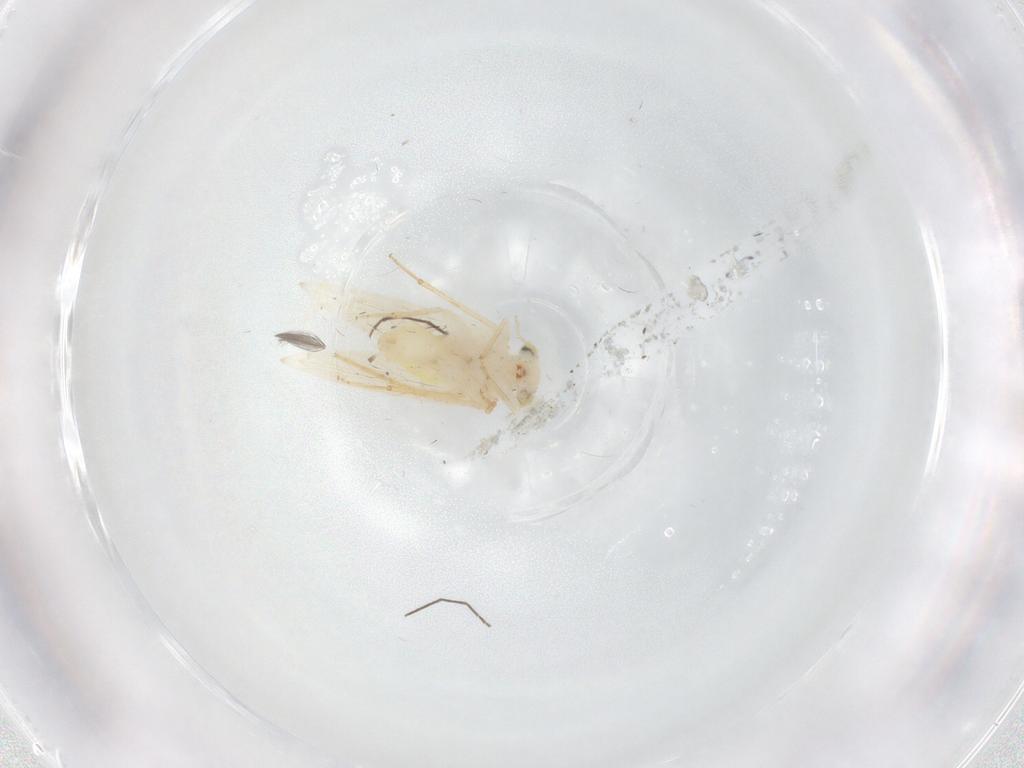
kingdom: Animalia
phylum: Arthropoda
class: Insecta
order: Psocodea
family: Lepidopsocidae
